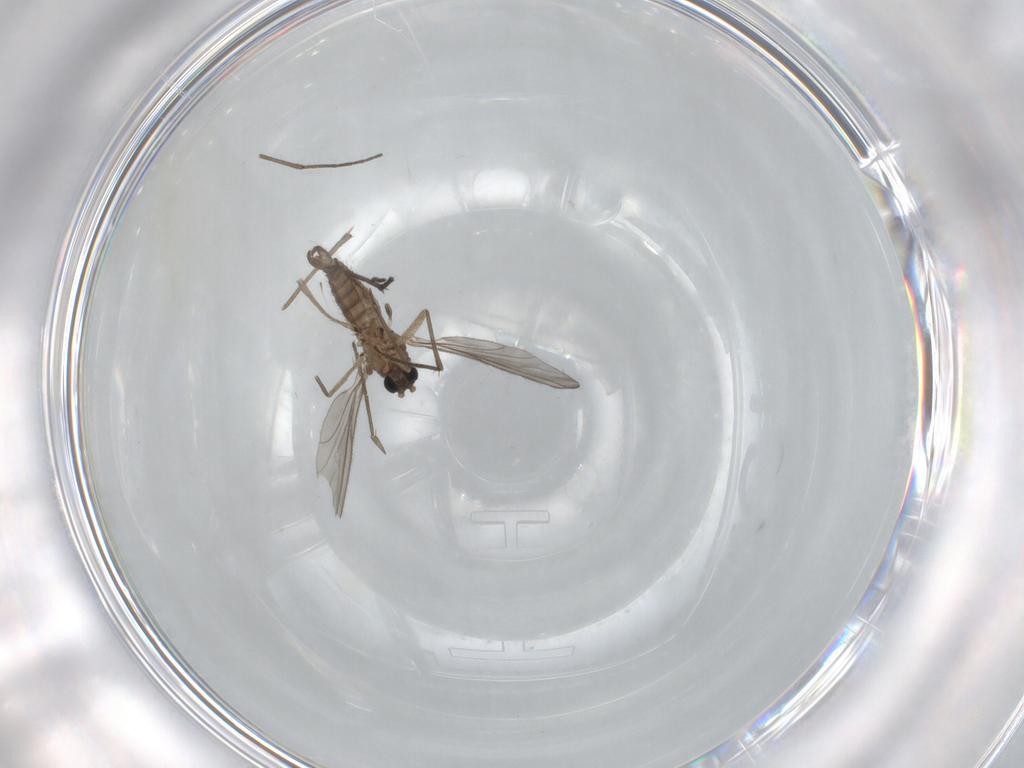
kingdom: Animalia
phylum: Arthropoda
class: Insecta
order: Diptera
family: Sciaridae
